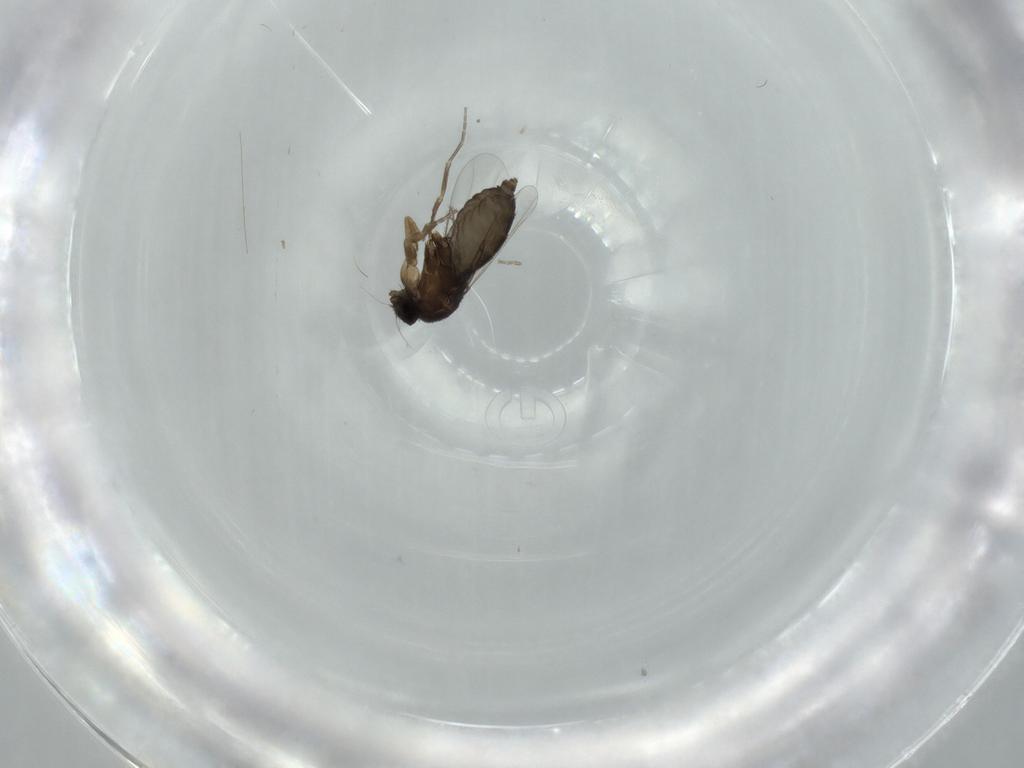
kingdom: Animalia
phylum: Arthropoda
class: Insecta
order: Diptera
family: Phoridae
